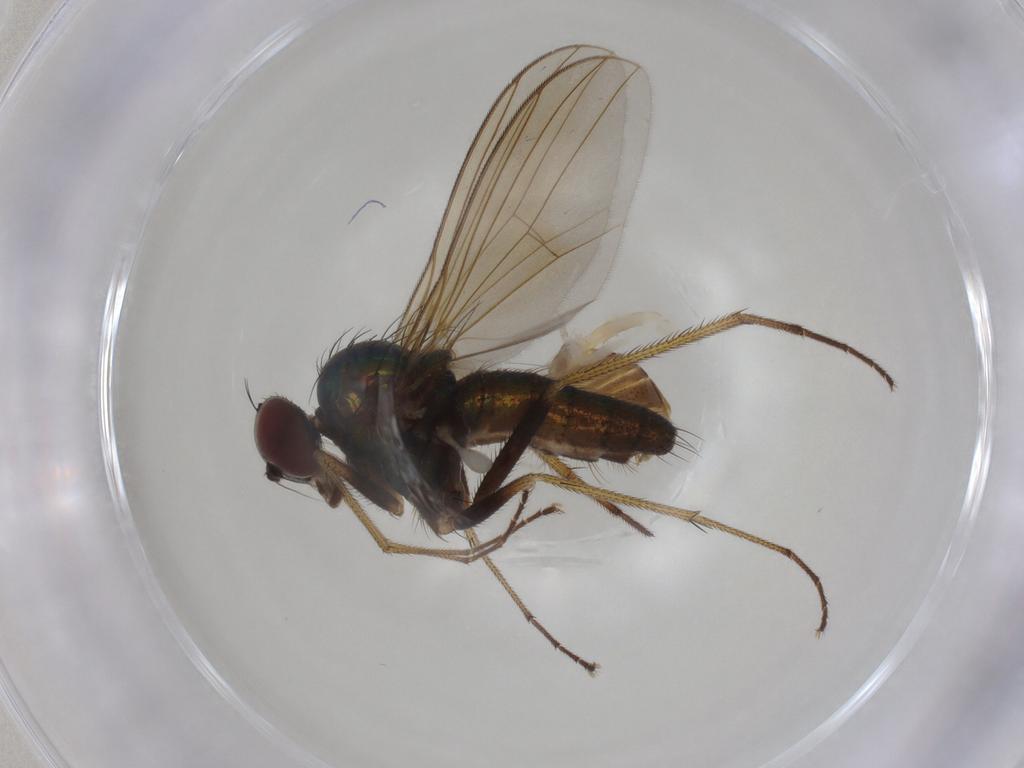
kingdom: Animalia
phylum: Arthropoda
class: Insecta
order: Diptera
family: Dolichopodidae
